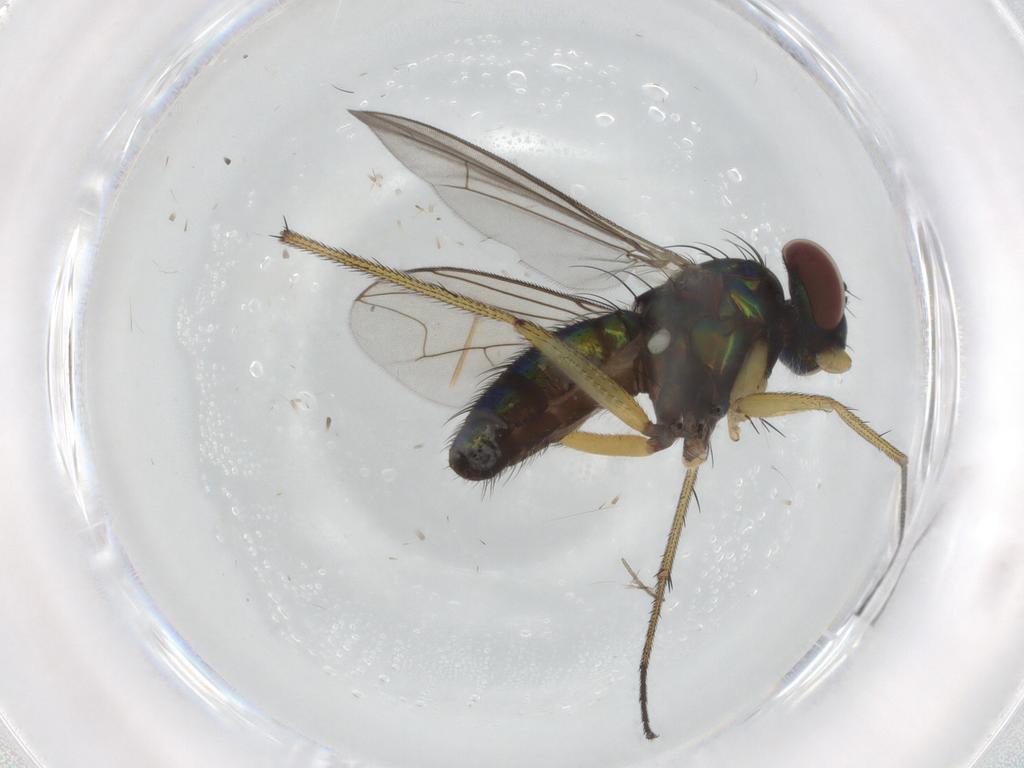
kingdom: Animalia
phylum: Arthropoda
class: Insecta
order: Diptera
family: Dolichopodidae
